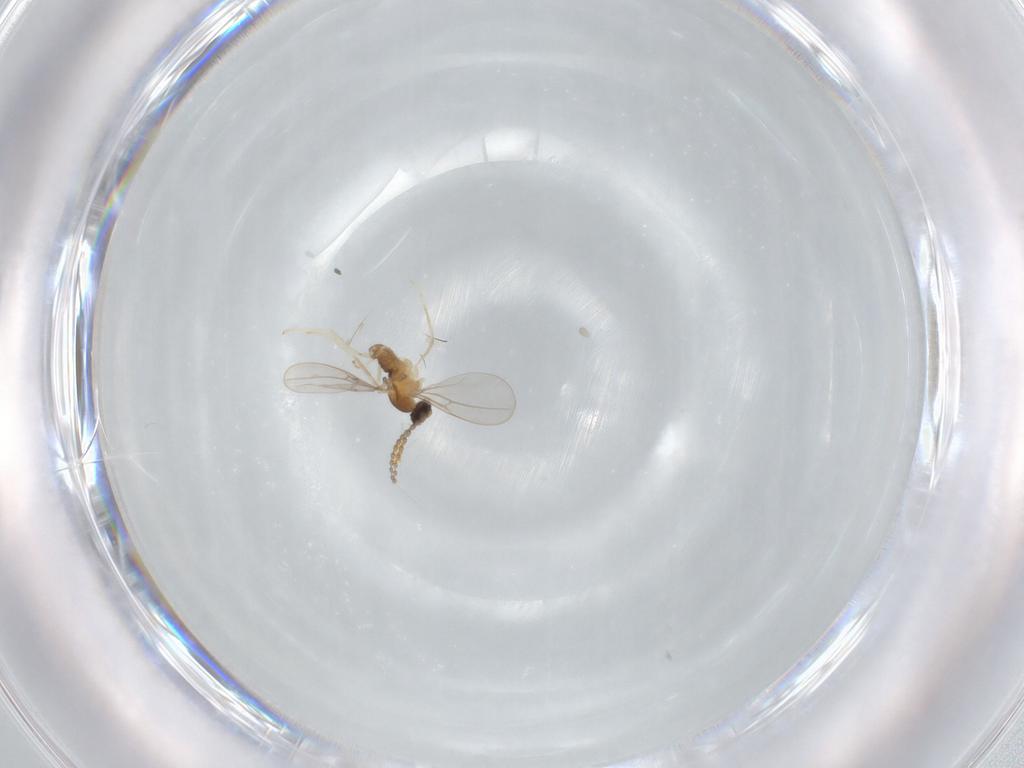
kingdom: Animalia
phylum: Arthropoda
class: Insecta
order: Diptera
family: Cecidomyiidae
